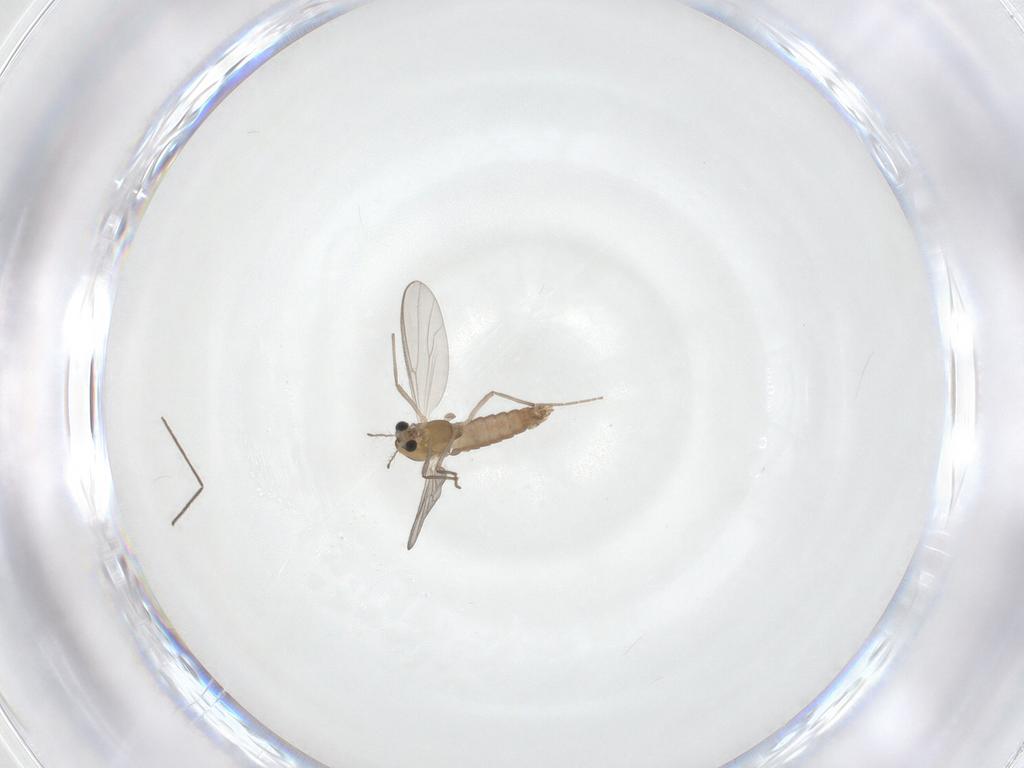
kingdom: Animalia
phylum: Arthropoda
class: Insecta
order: Diptera
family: Chironomidae
